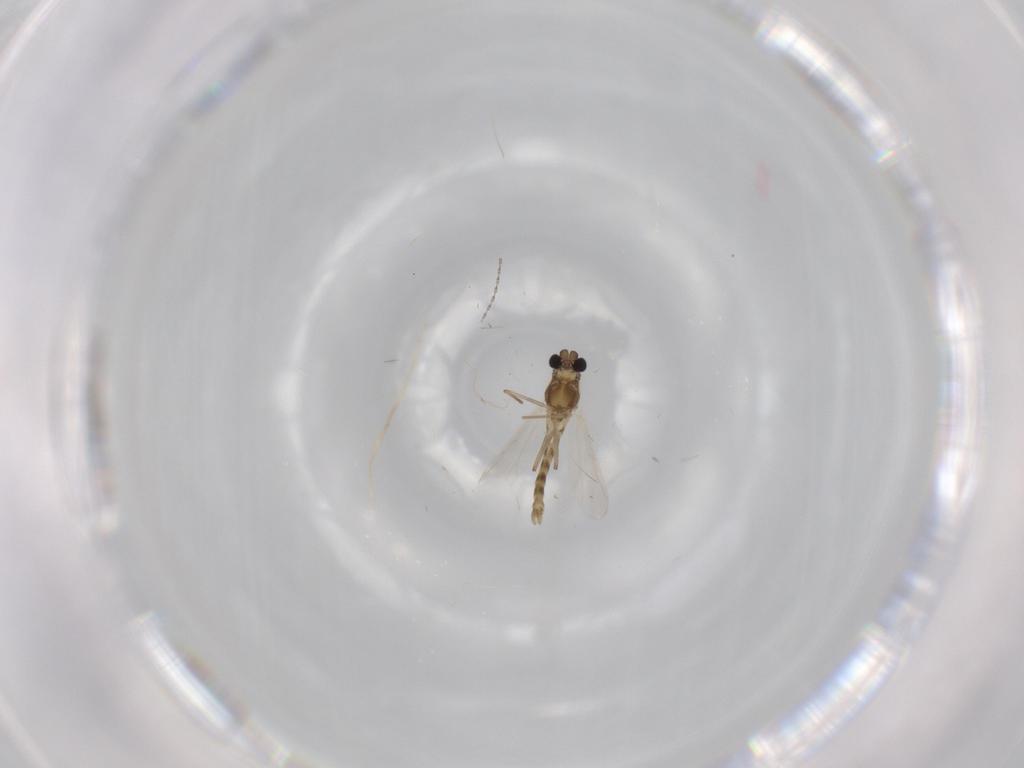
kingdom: Animalia
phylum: Arthropoda
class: Insecta
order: Diptera
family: Chironomidae
